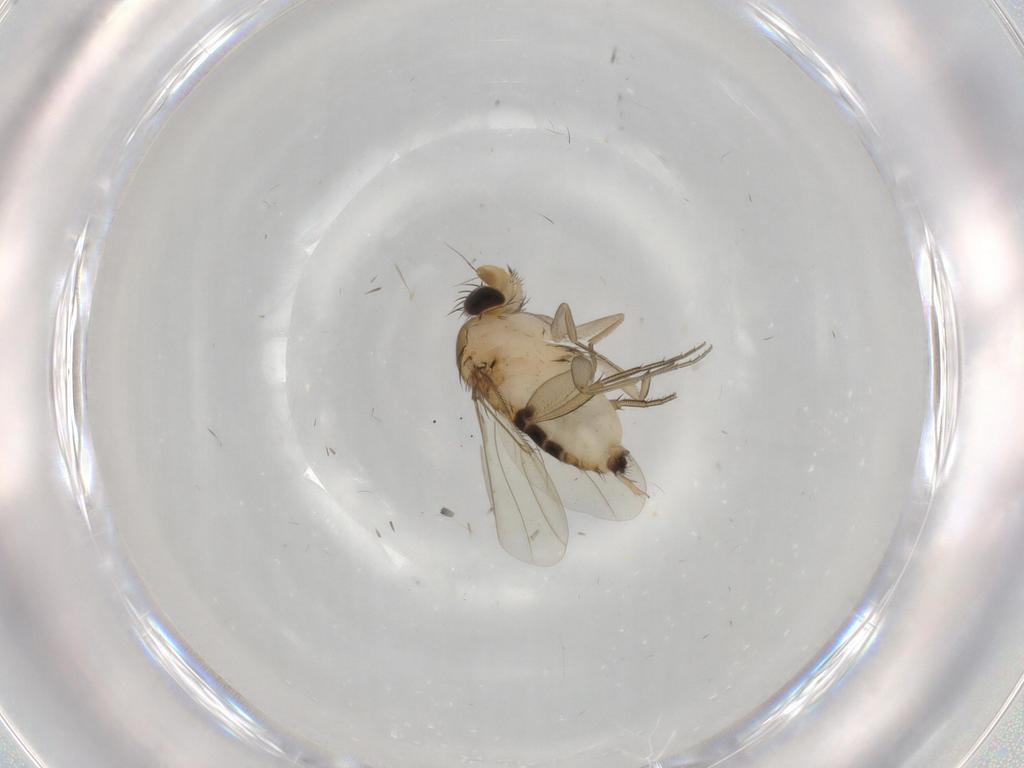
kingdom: Animalia
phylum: Arthropoda
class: Insecta
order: Diptera
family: Phoridae
